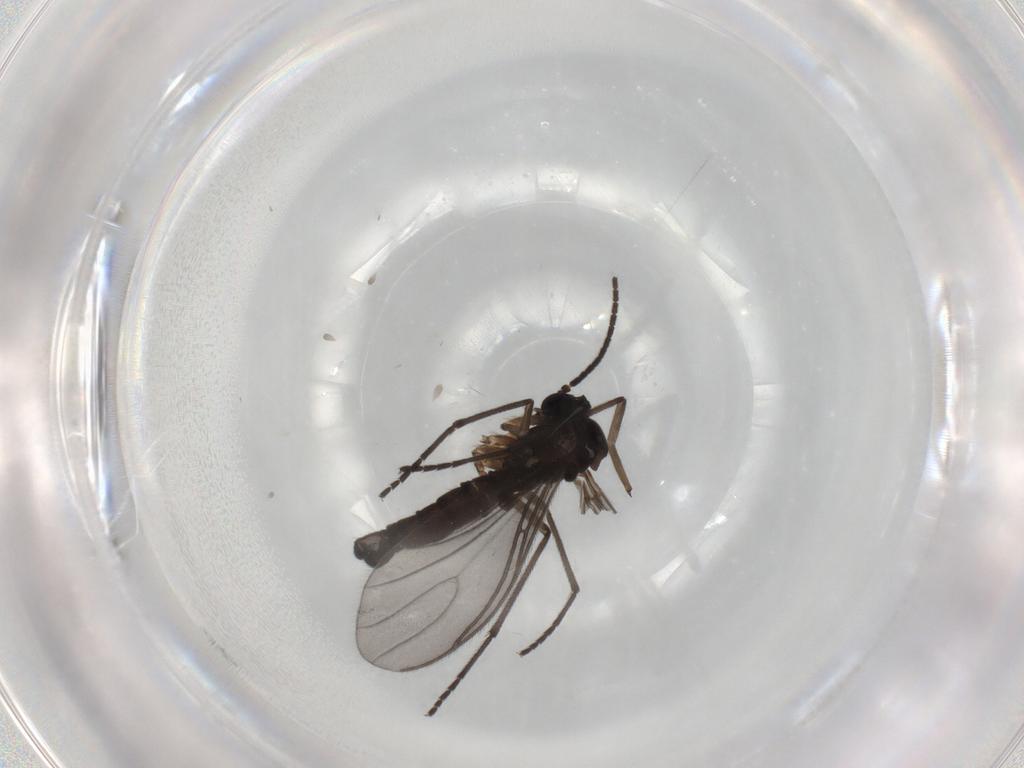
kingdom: Animalia
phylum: Arthropoda
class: Insecta
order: Diptera
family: Sciaridae
